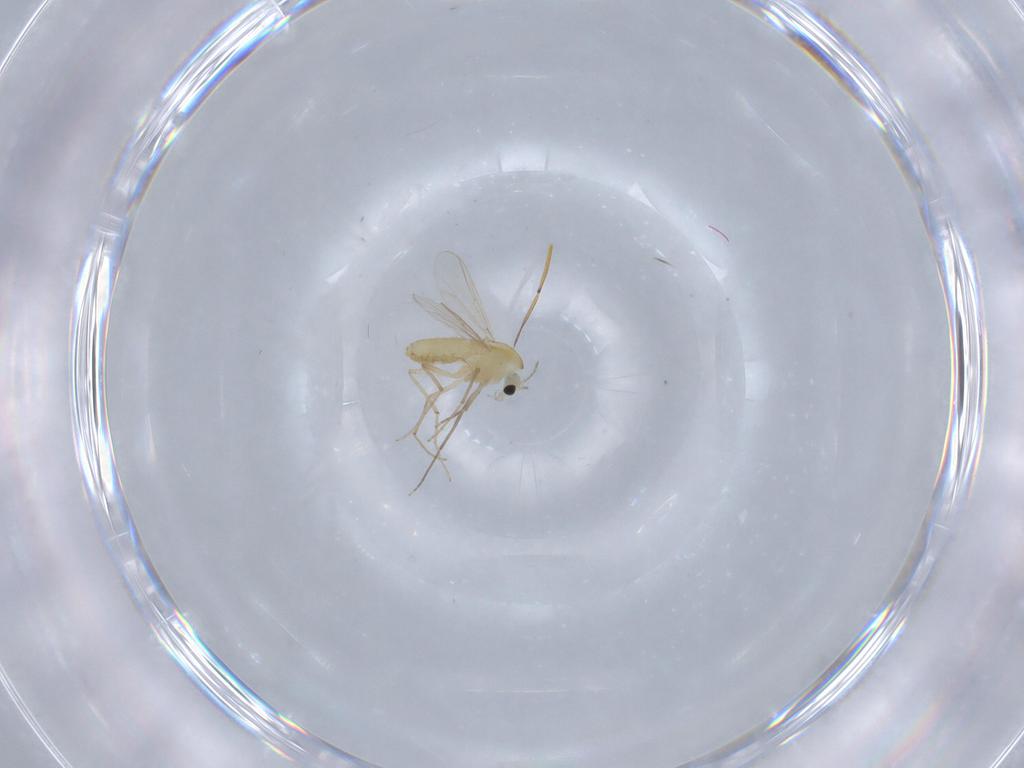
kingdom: Animalia
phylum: Arthropoda
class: Insecta
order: Diptera
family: Chironomidae
